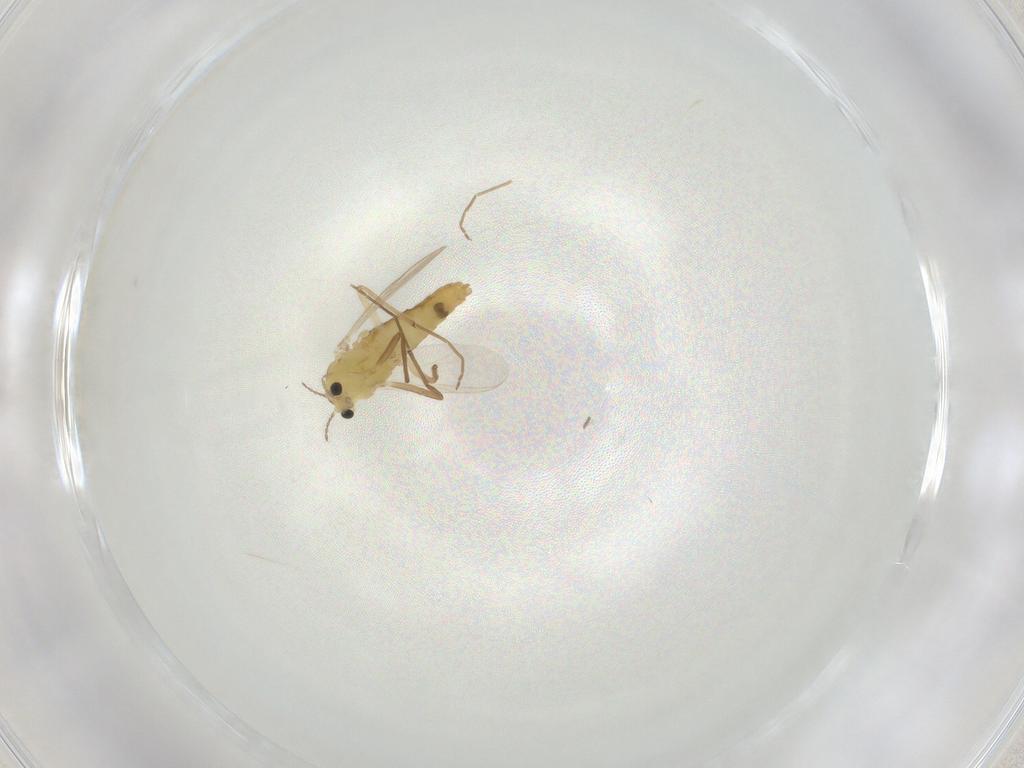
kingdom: Animalia
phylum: Arthropoda
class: Insecta
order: Diptera
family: Chironomidae
